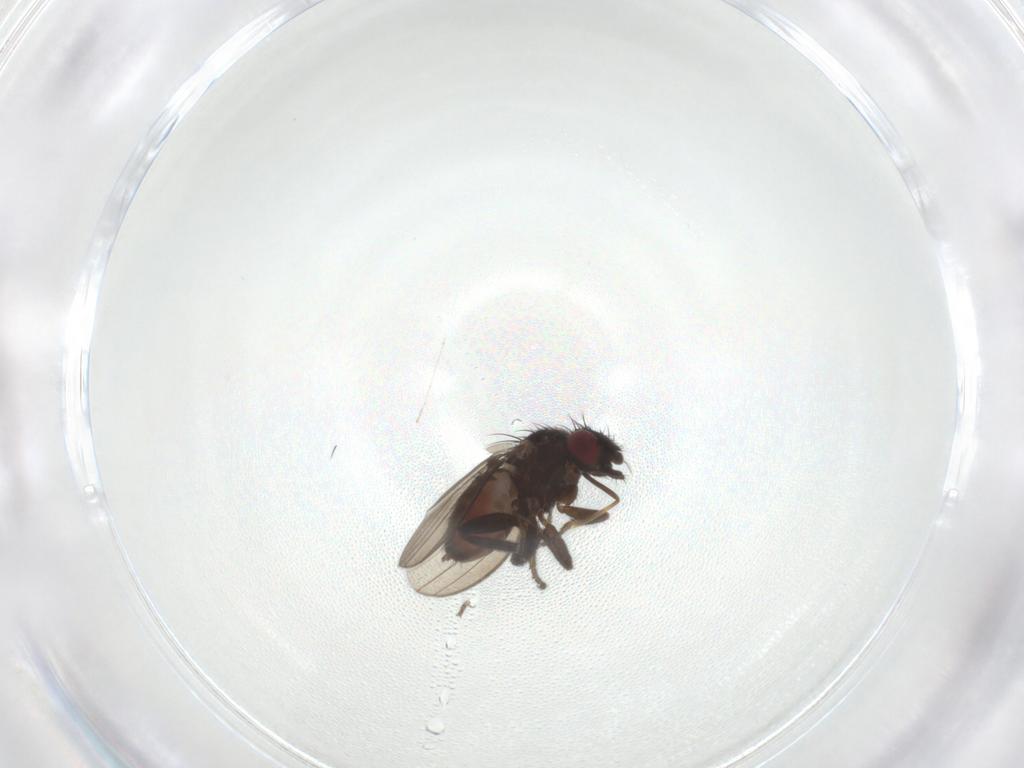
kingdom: Animalia
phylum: Arthropoda
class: Insecta
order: Diptera
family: Milichiidae
